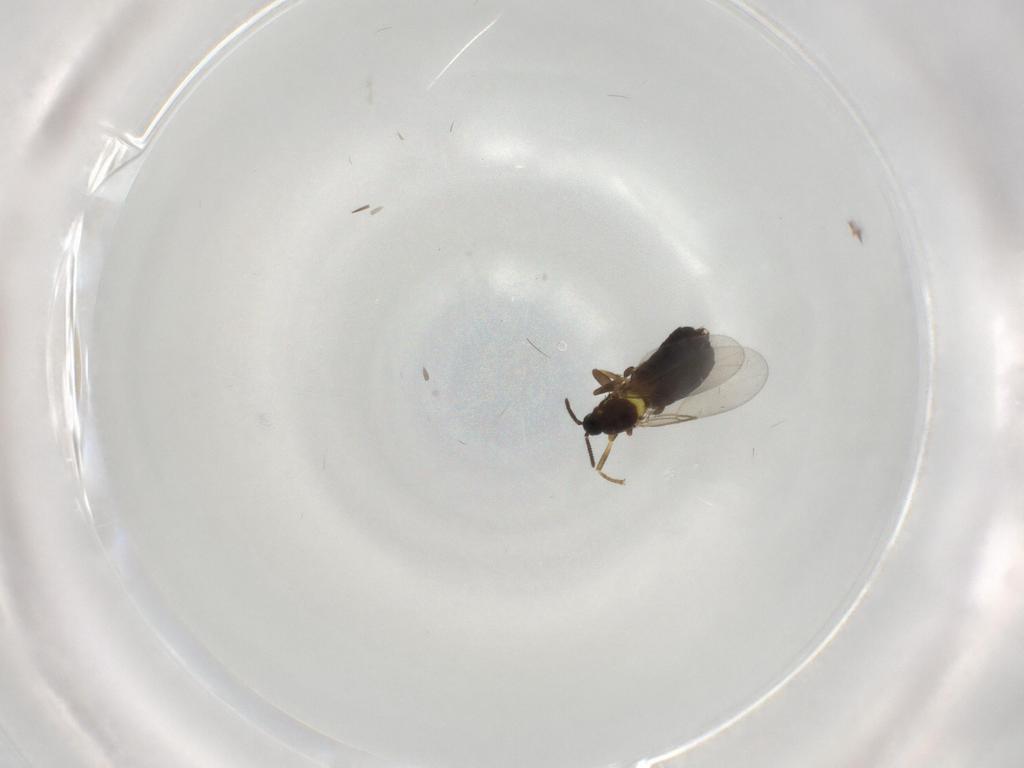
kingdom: Animalia
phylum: Arthropoda
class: Insecta
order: Diptera
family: Scatopsidae
